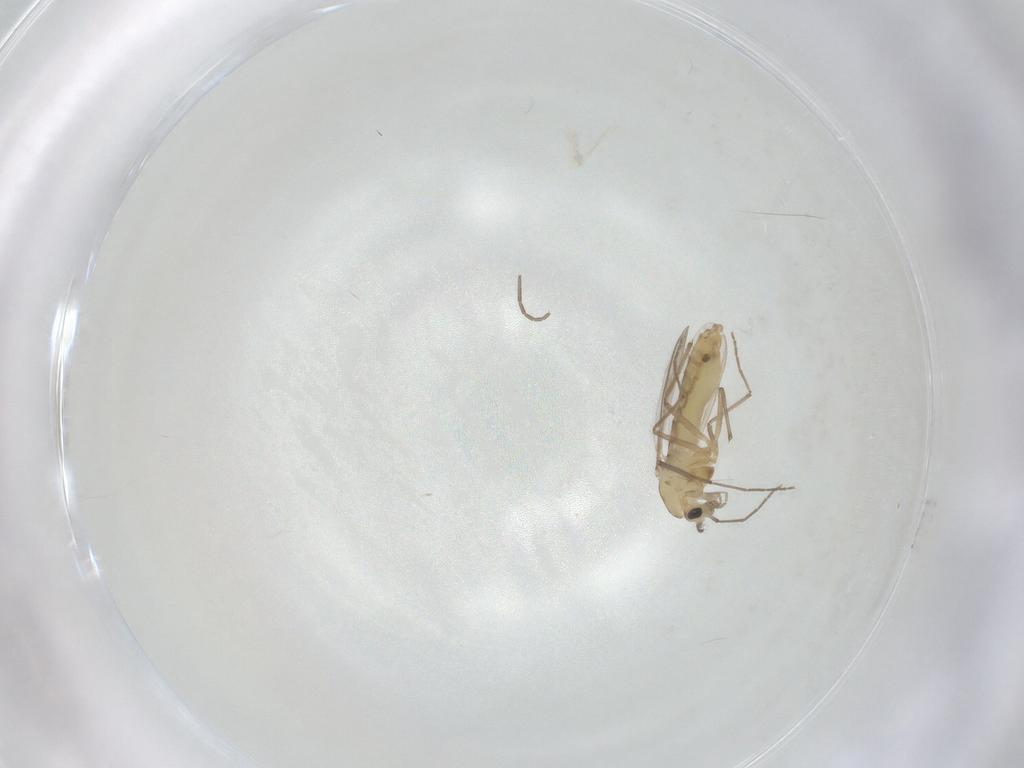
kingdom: Animalia
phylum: Arthropoda
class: Insecta
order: Diptera
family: Chironomidae
